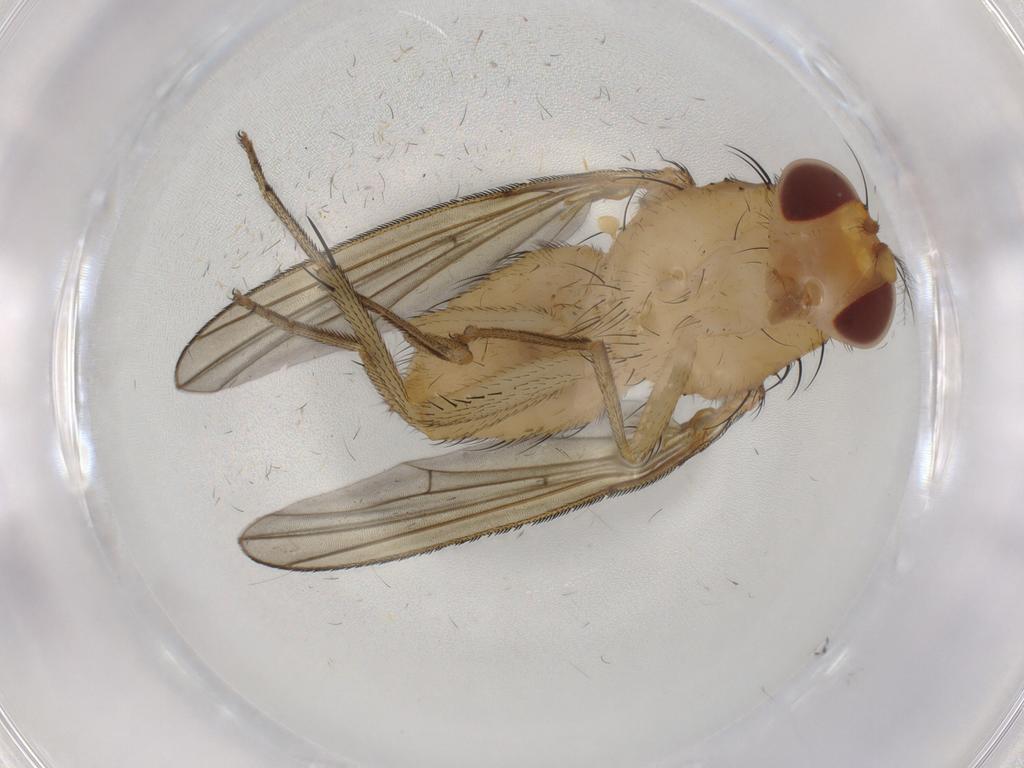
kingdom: Animalia
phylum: Arthropoda
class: Insecta
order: Diptera
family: Ceratopogonidae
